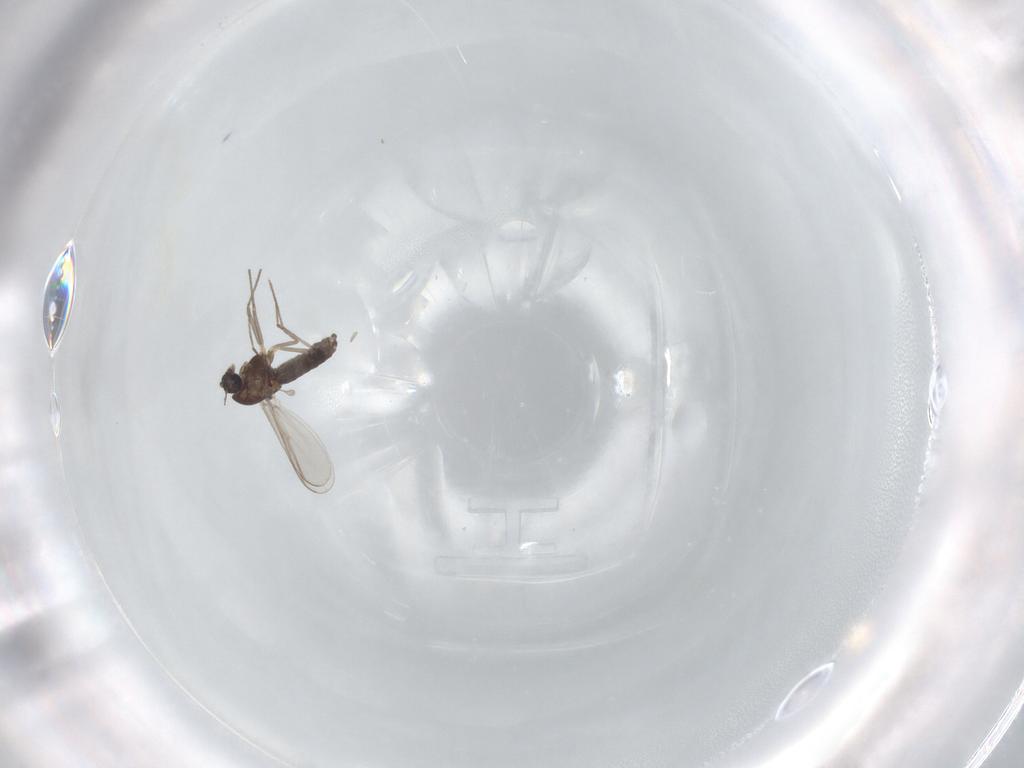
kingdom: Animalia
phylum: Arthropoda
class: Insecta
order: Diptera
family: Chironomidae
